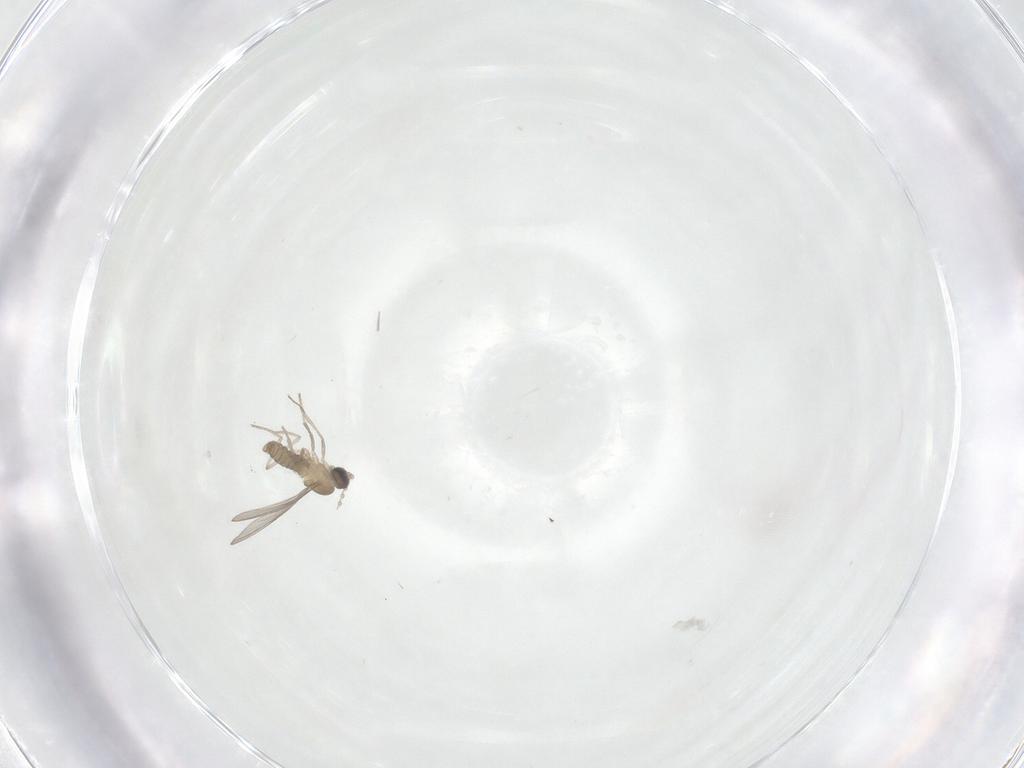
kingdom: Animalia
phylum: Arthropoda
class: Insecta
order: Diptera
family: Cecidomyiidae
